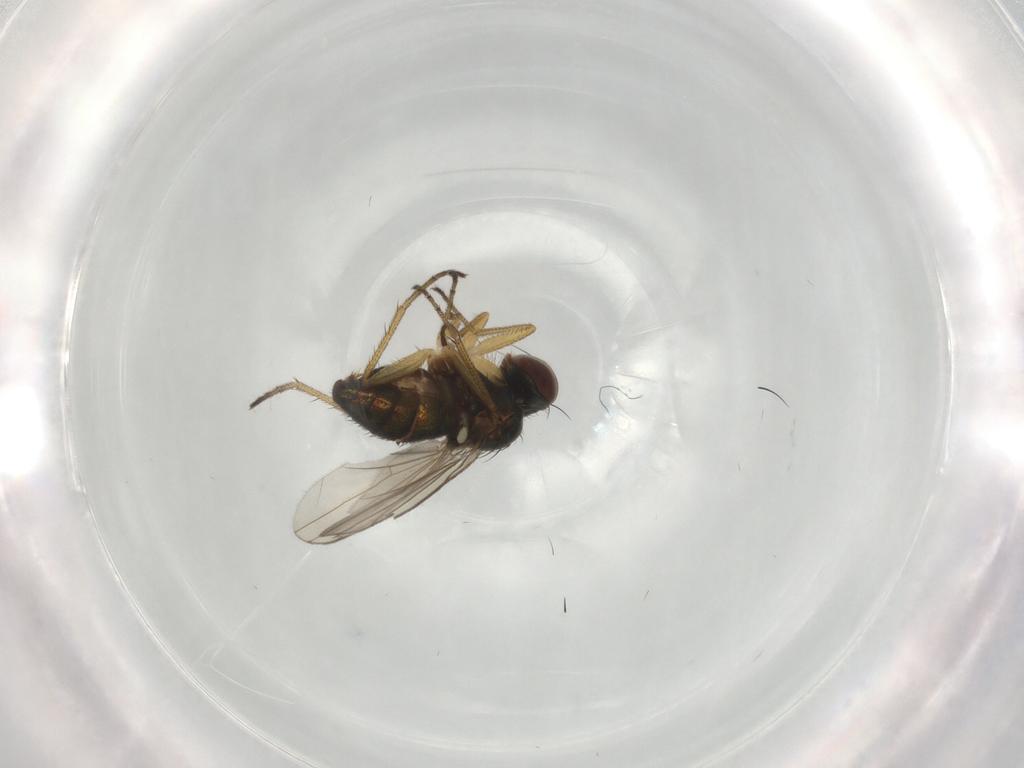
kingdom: Animalia
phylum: Arthropoda
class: Insecta
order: Diptera
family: Dolichopodidae
